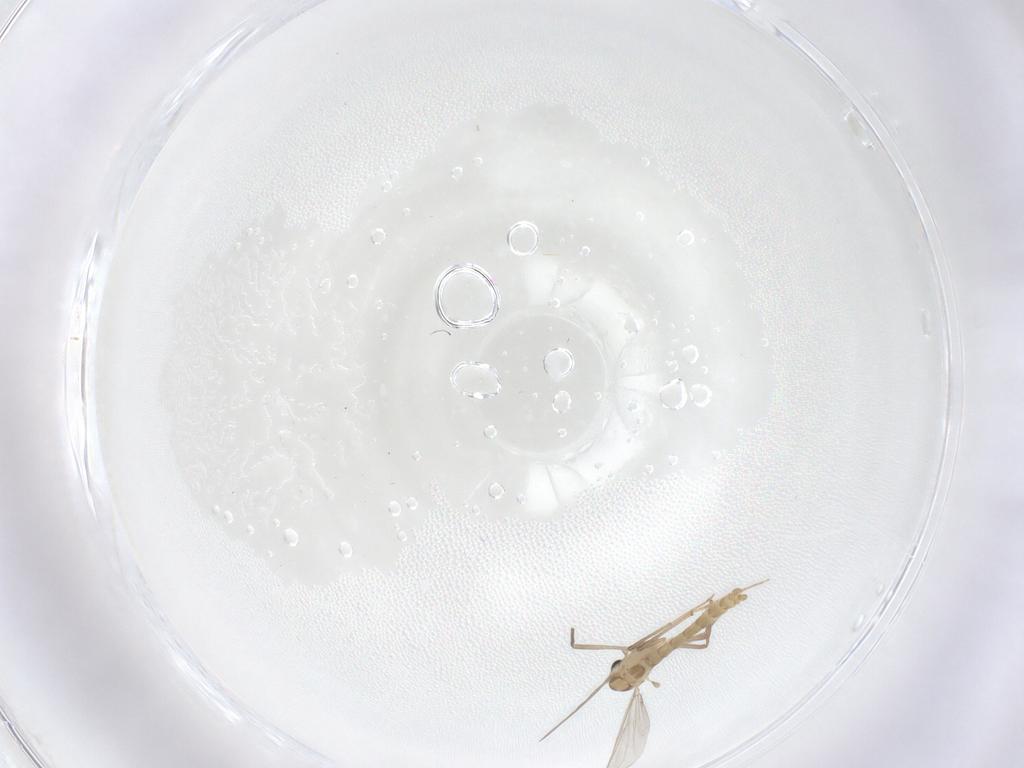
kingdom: Animalia
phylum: Arthropoda
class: Insecta
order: Diptera
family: Chironomidae
